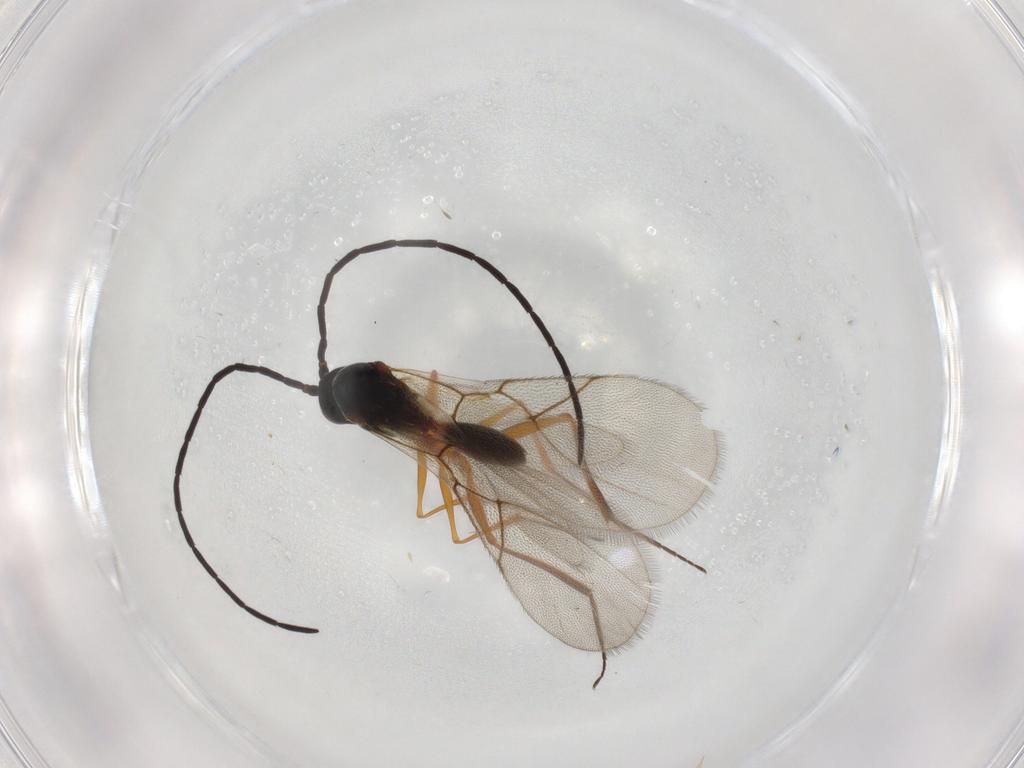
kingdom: Animalia
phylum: Arthropoda
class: Insecta
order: Hymenoptera
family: Figitidae
